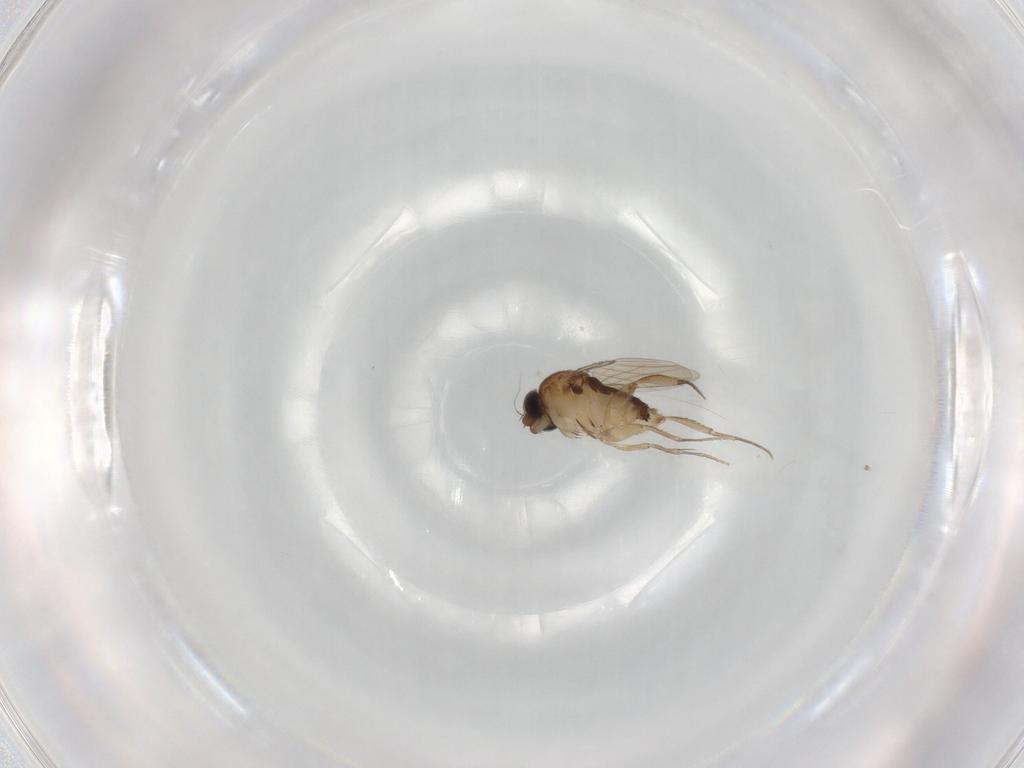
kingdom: Animalia
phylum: Arthropoda
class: Insecta
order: Diptera
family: Phoridae
